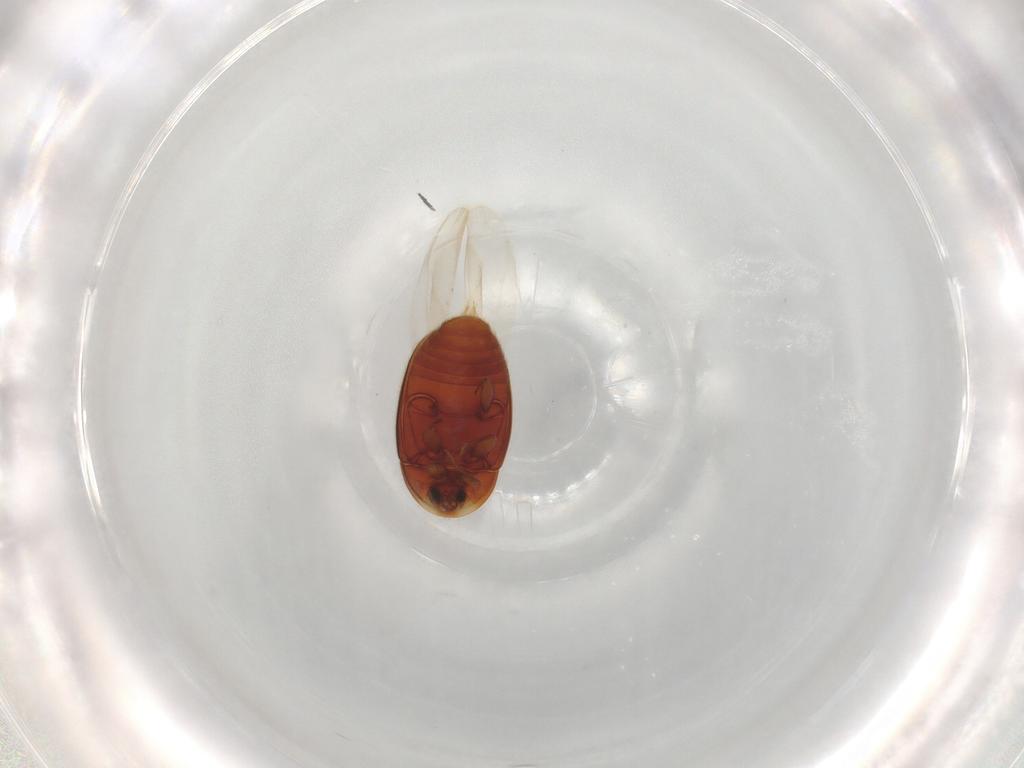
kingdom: Animalia
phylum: Arthropoda
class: Insecta
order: Coleoptera
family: Corylophidae
